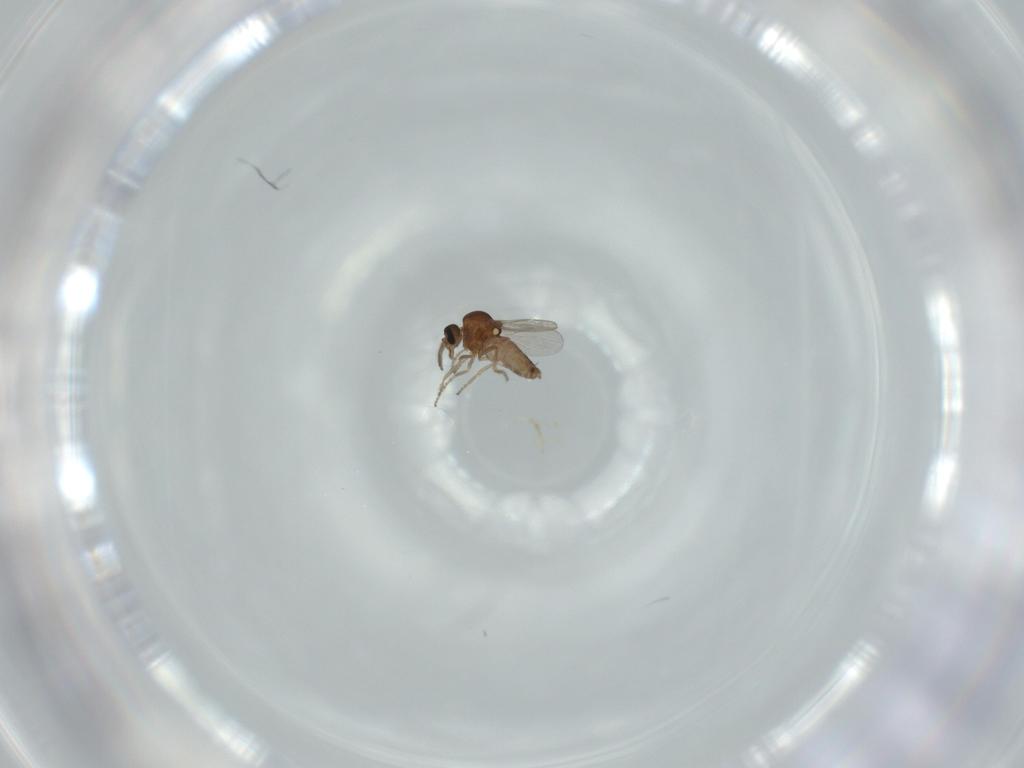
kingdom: Animalia
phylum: Arthropoda
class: Insecta
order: Diptera
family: Ceratopogonidae
